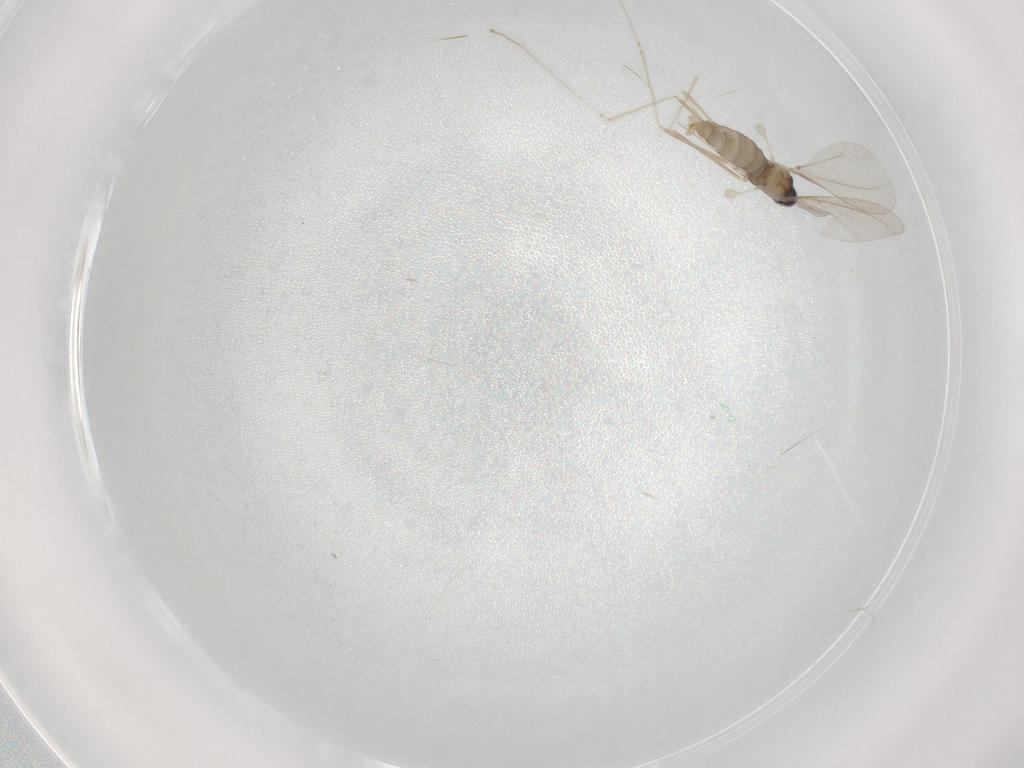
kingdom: Animalia
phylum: Arthropoda
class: Insecta
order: Diptera
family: Cecidomyiidae
